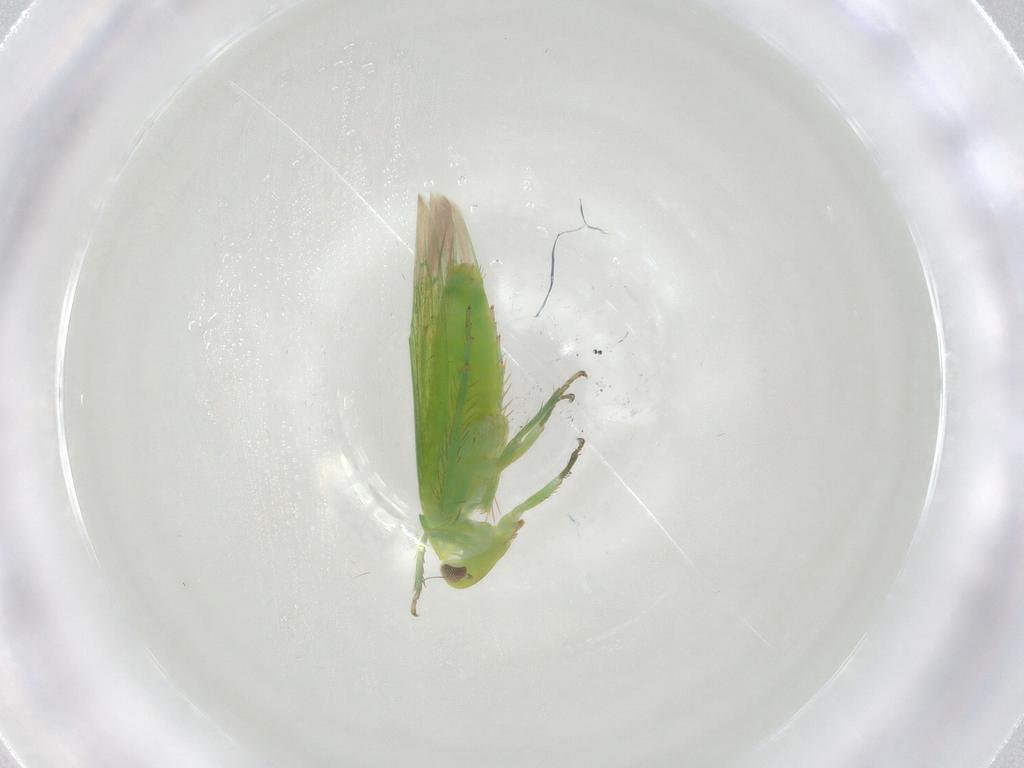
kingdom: Animalia
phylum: Arthropoda
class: Insecta
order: Hemiptera
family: Cicadellidae
